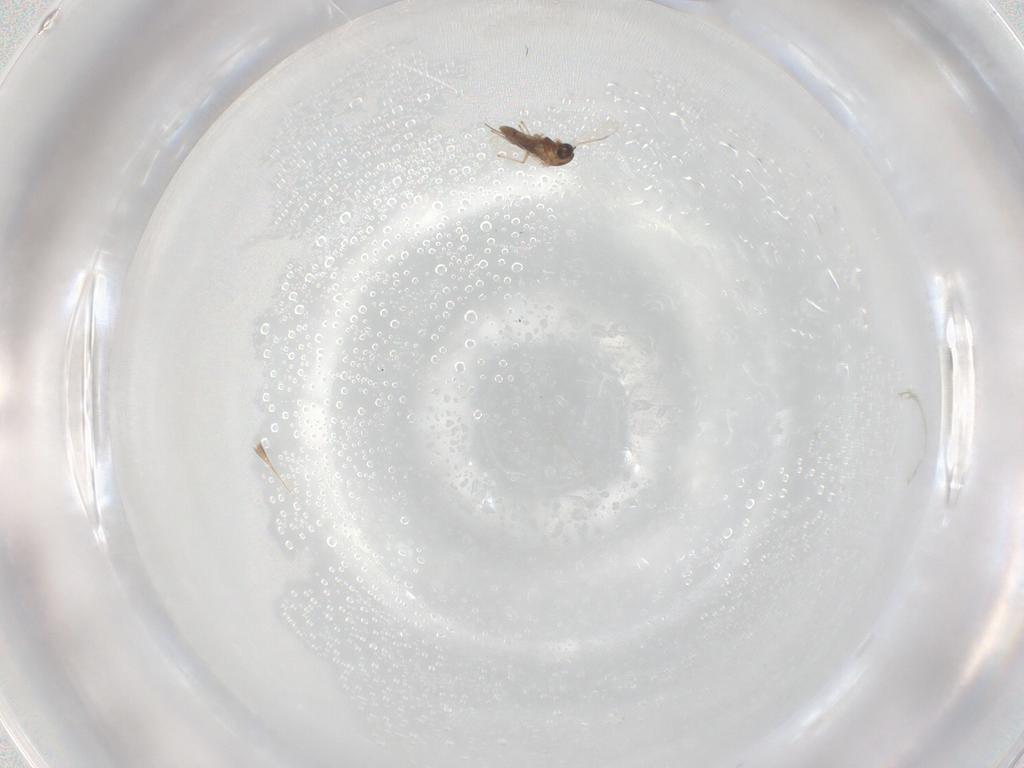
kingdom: Animalia
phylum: Arthropoda
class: Insecta
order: Diptera
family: Chironomidae
